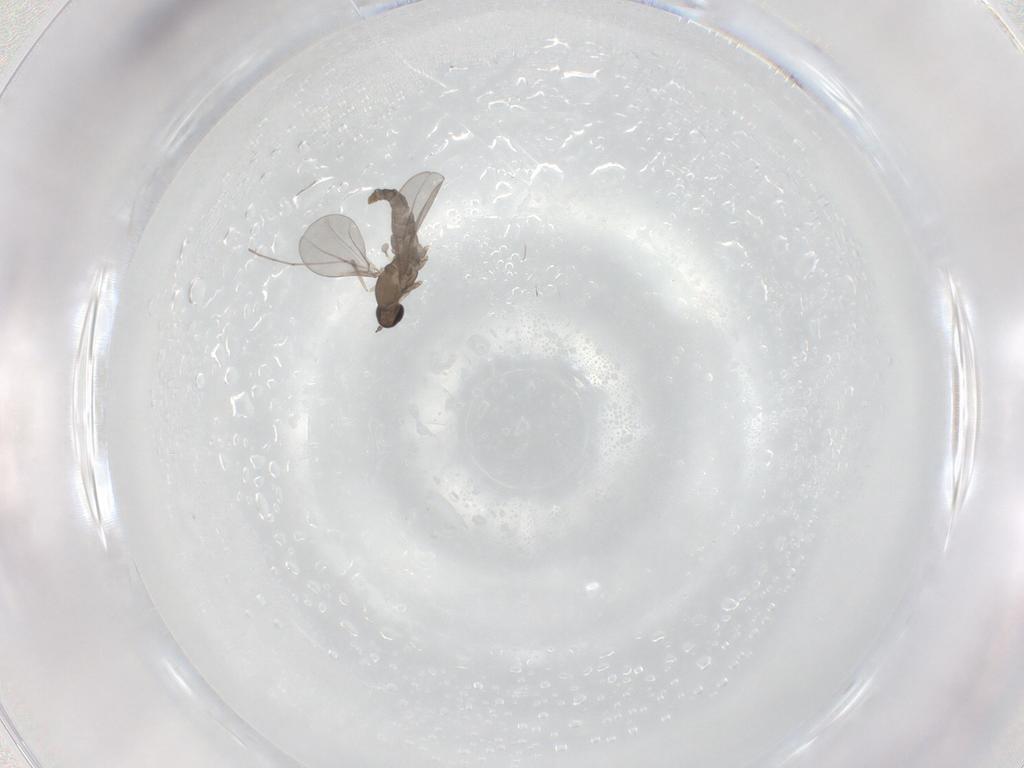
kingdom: Animalia
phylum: Arthropoda
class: Insecta
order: Diptera
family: Cecidomyiidae
